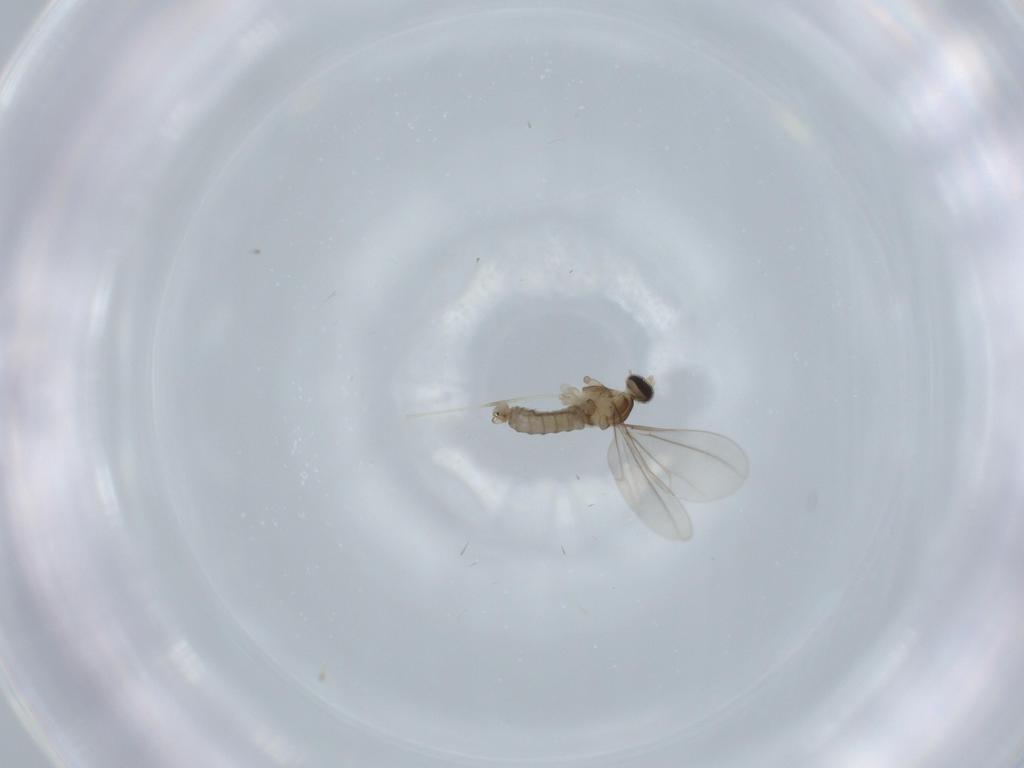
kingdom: Animalia
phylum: Arthropoda
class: Insecta
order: Diptera
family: Cecidomyiidae
